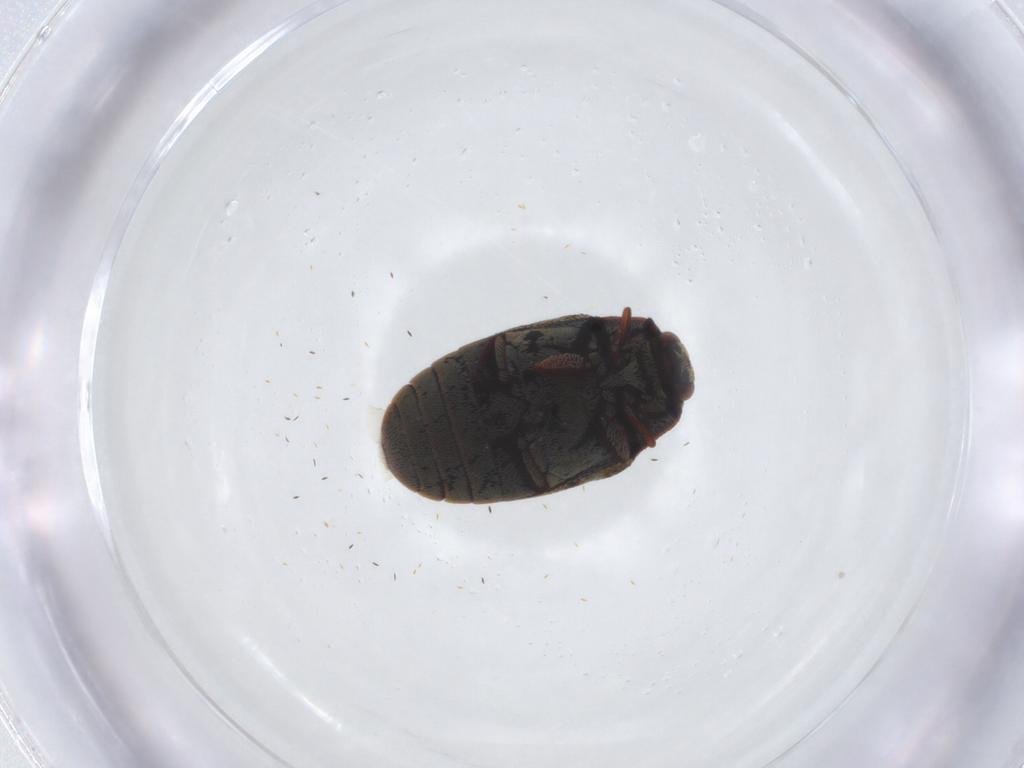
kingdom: Animalia
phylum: Arthropoda
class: Insecta
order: Coleoptera
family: Dermestidae
